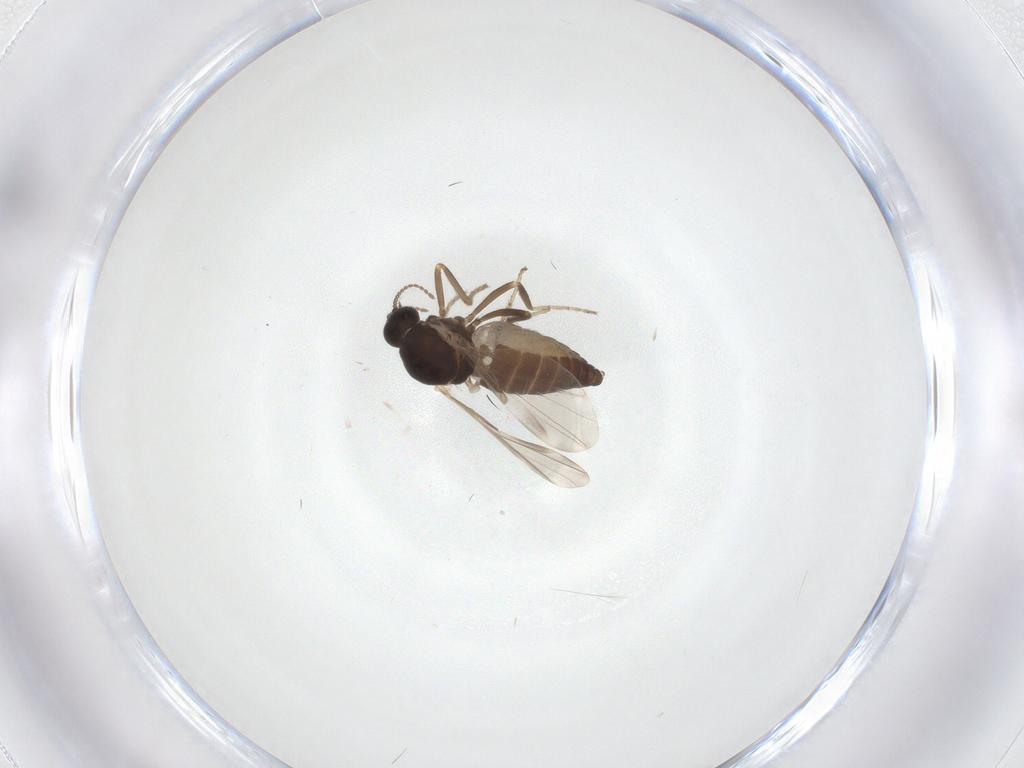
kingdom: Animalia
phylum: Arthropoda
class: Insecta
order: Diptera
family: Ceratopogonidae
